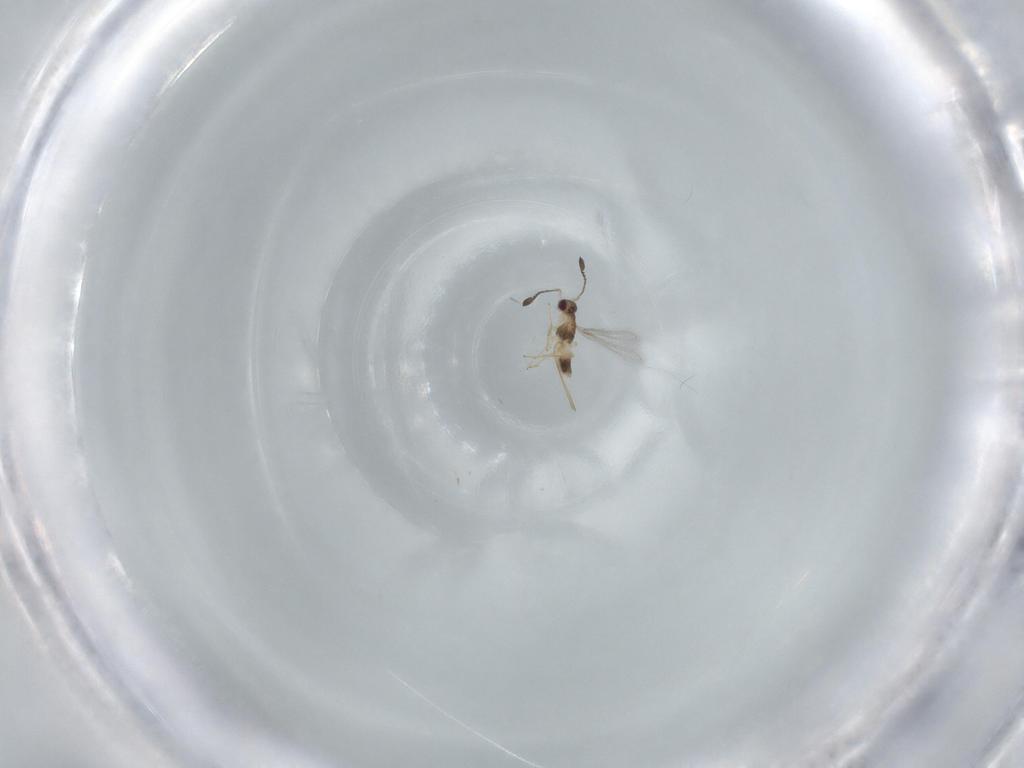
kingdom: Animalia
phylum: Arthropoda
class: Insecta
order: Hymenoptera
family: Mymaridae
